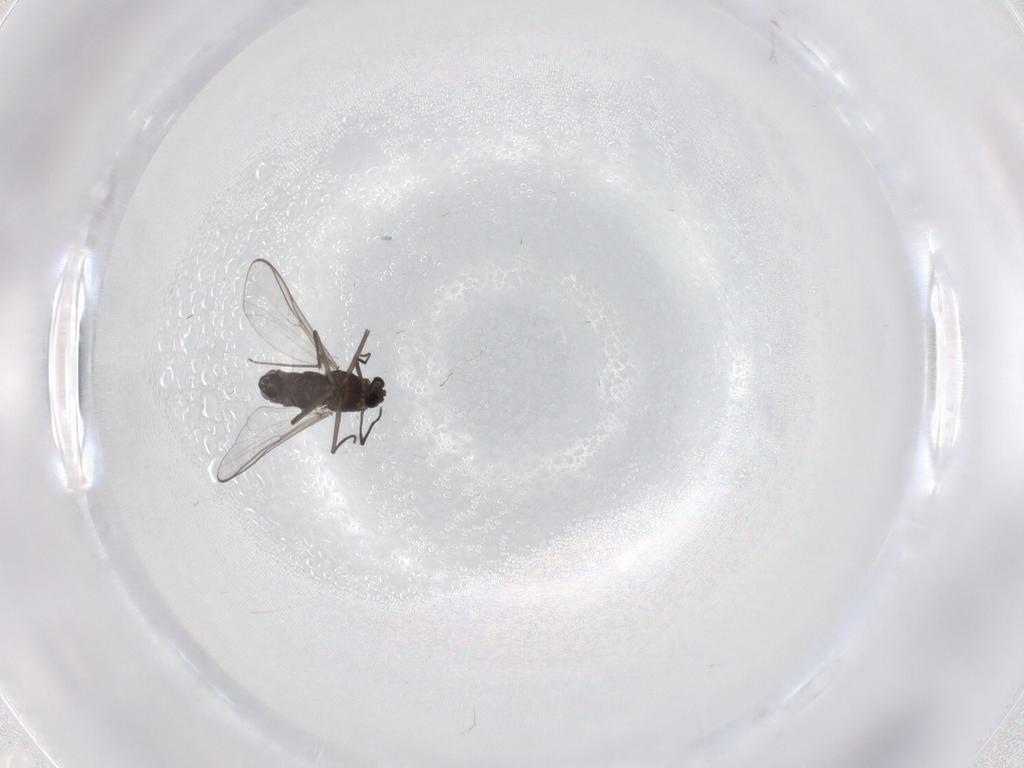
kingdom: Animalia
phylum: Arthropoda
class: Insecta
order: Diptera
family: Chironomidae
